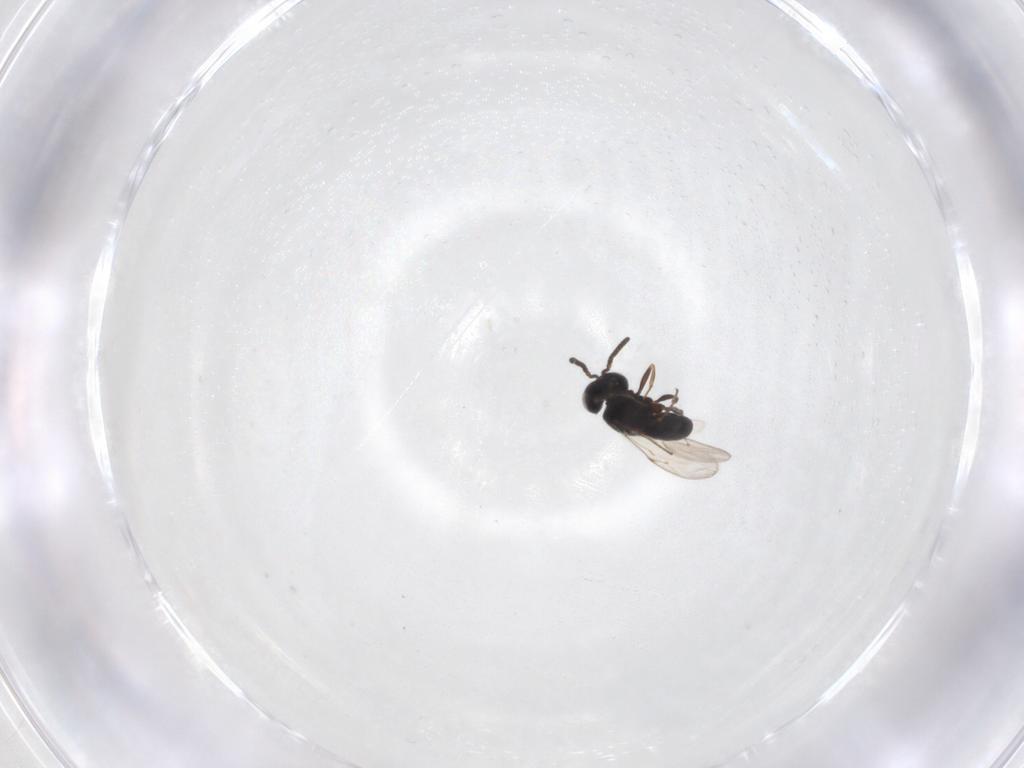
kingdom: Animalia
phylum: Arthropoda
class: Insecta
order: Hymenoptera
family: Scelionidae
